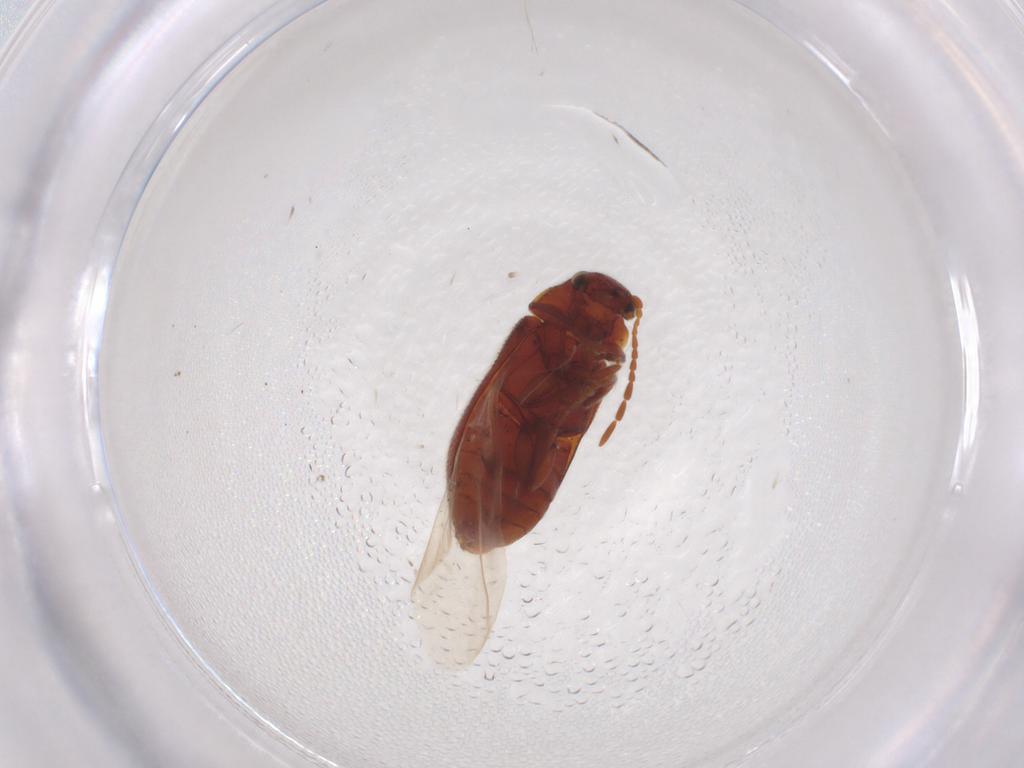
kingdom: Animalia
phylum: Arthropoda
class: Insecta
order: Coleoptera
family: Ptinidae
